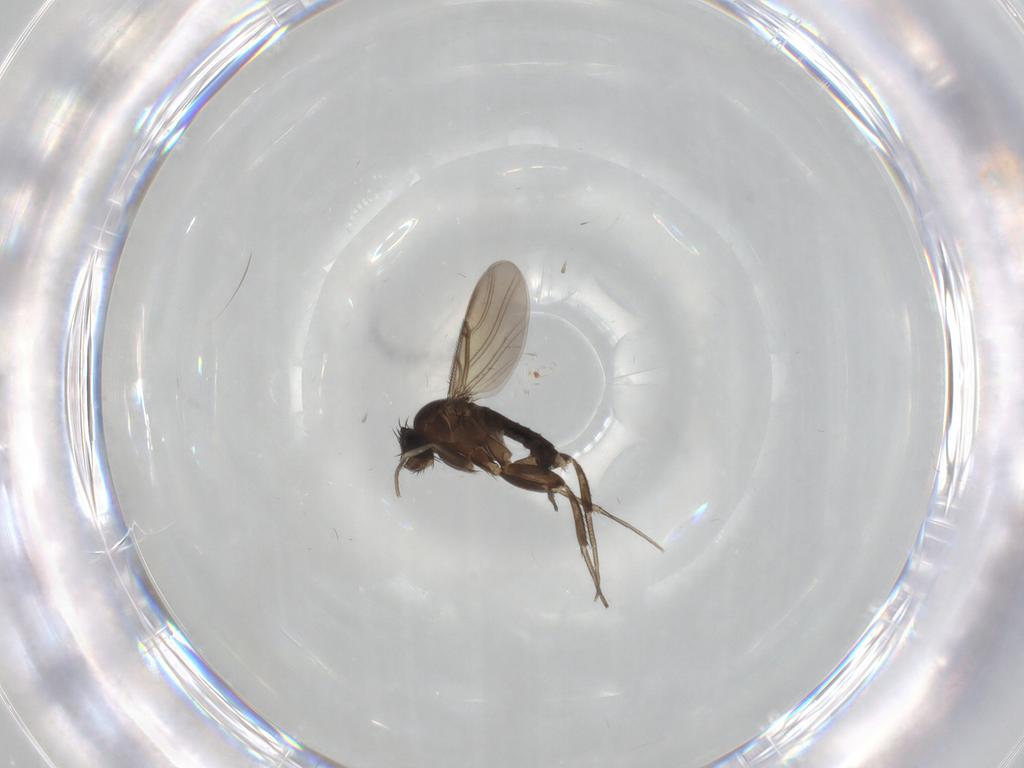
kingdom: Animalia
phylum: Arthropoda
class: Insecta
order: Diptera
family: Phoridae
